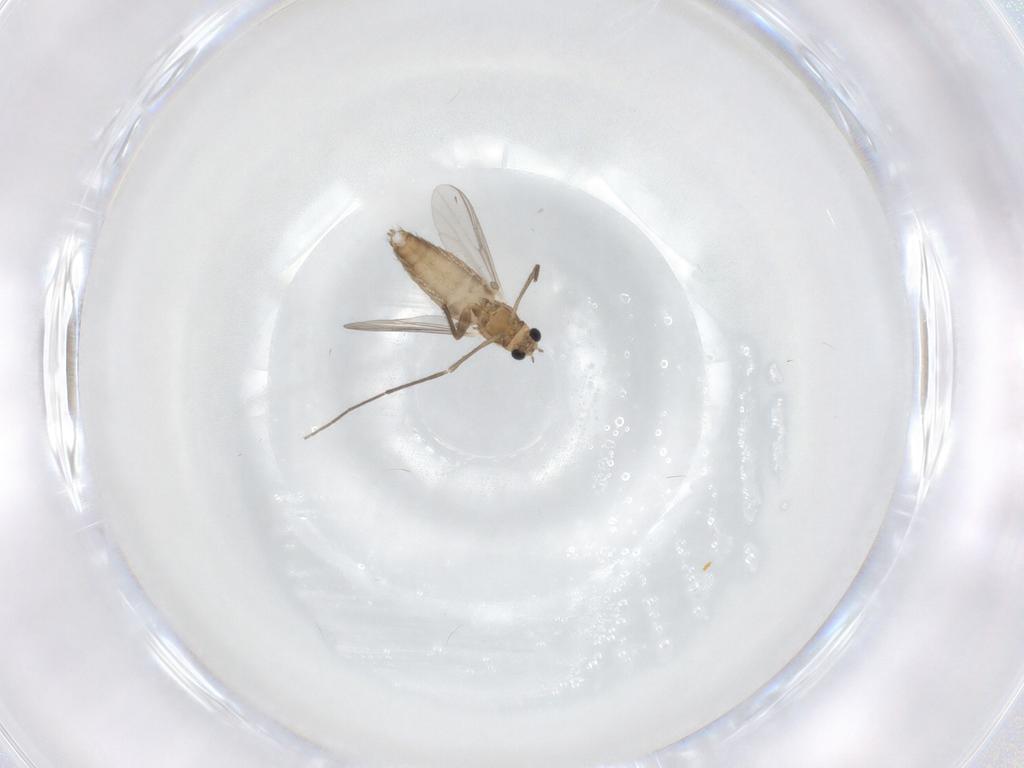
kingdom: Animalia
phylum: Arthropoda
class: Insecta
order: Diptera
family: Chironomidae
